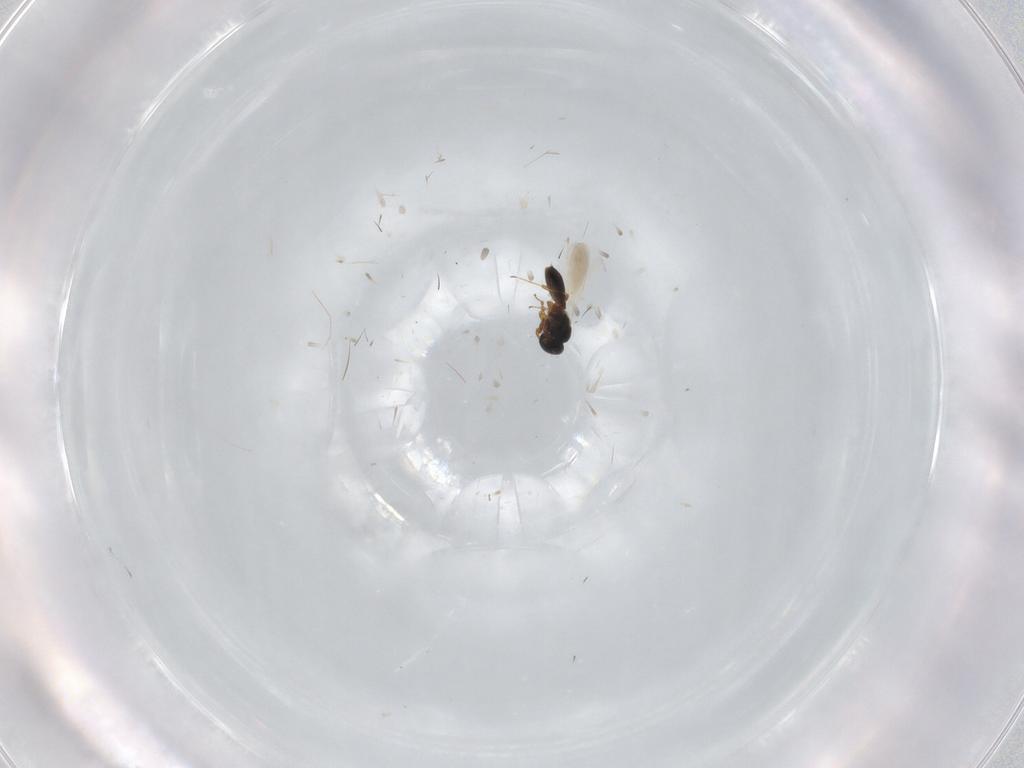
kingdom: Animalia
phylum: Arthropoda
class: Insecta
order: Hymenoptera
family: Platygastridae
